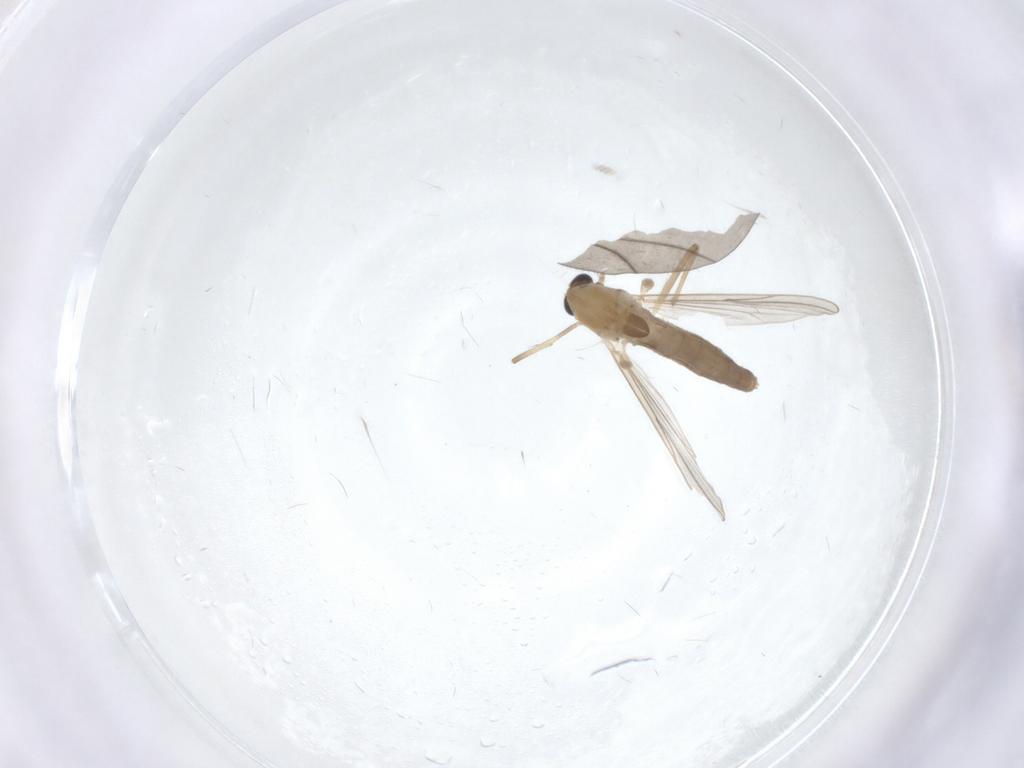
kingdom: Animalia
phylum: Arthropoda
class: Insecta
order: Diptera
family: Chironomidae
